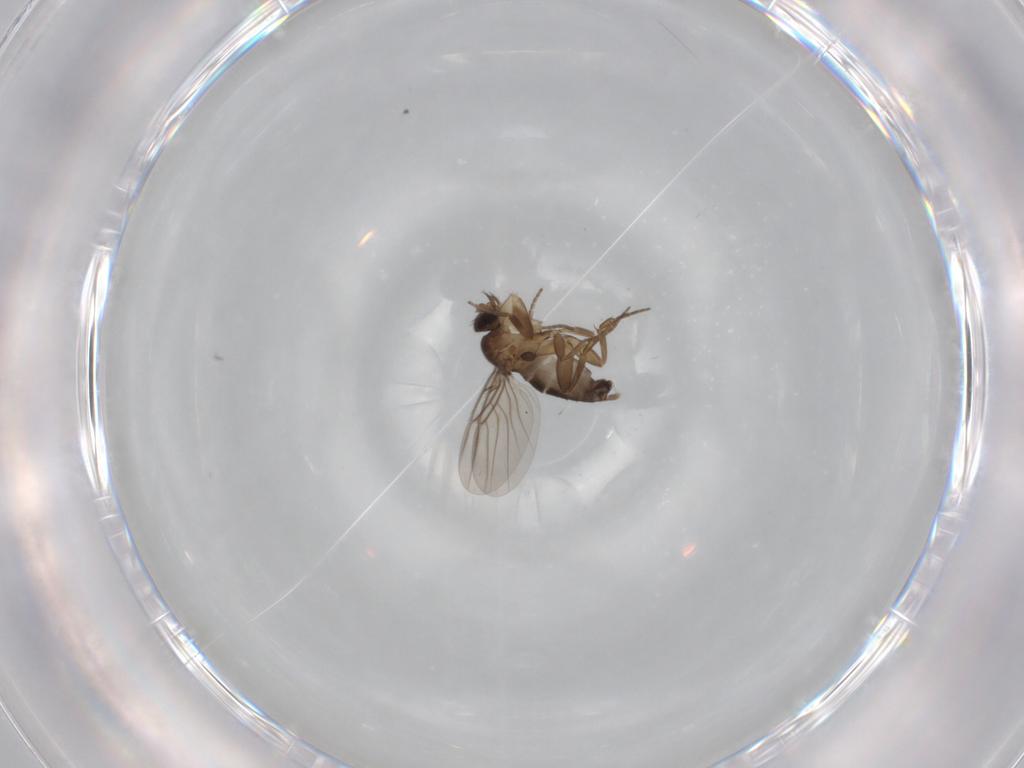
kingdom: Animalia
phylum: Arthropoda
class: Insecta
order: Diptera
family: Phoridae
